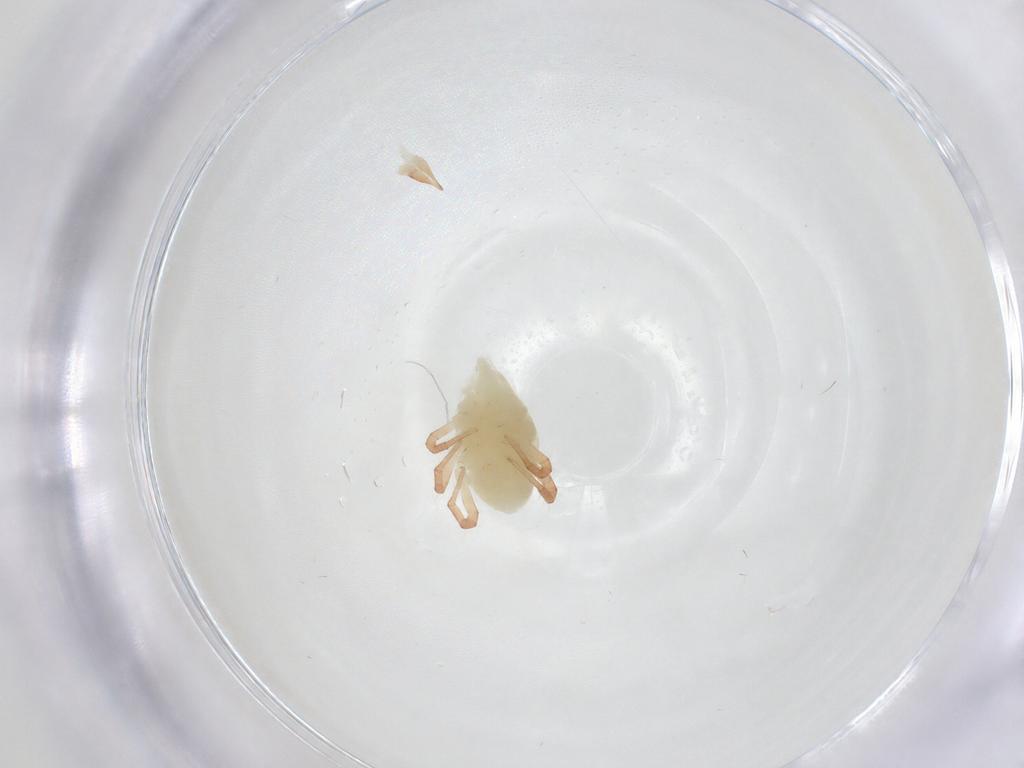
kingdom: Animalia
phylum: Arthropoda
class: Arachnida
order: Trombidiformes
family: Bdellidae
